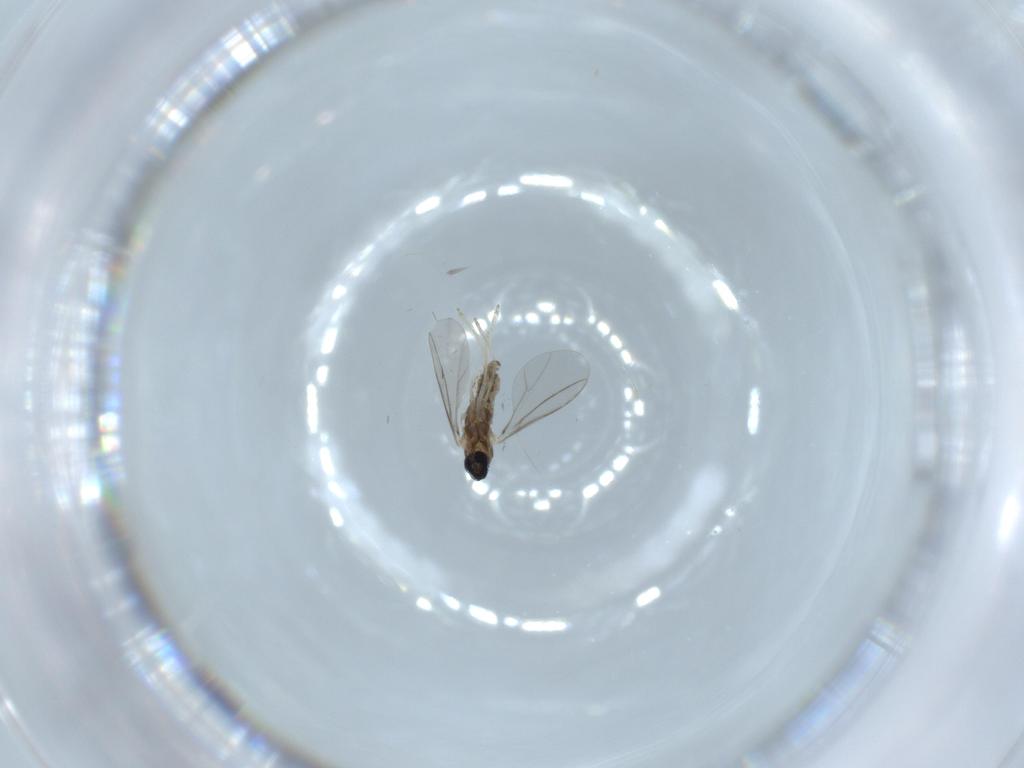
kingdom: Animalia
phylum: Arthropoda
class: Insecta
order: Diptera
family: Cecidomyiidae
